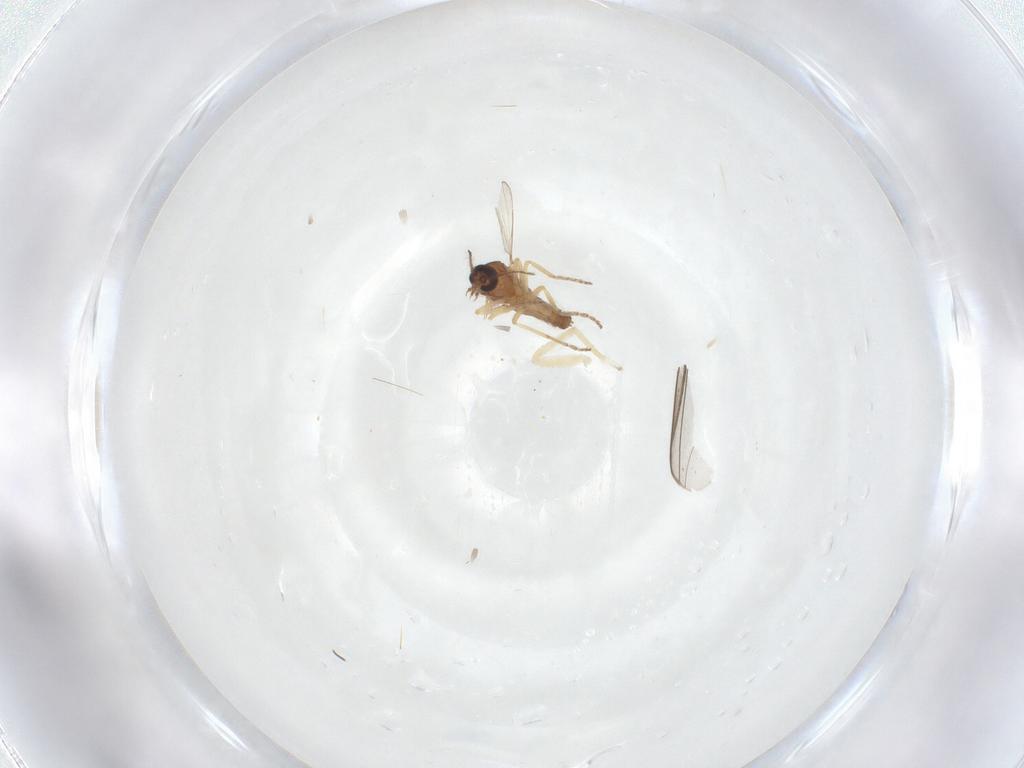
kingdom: Animalia
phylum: Arthropoda
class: Insecta
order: Diptera
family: Ceratopogonidae
